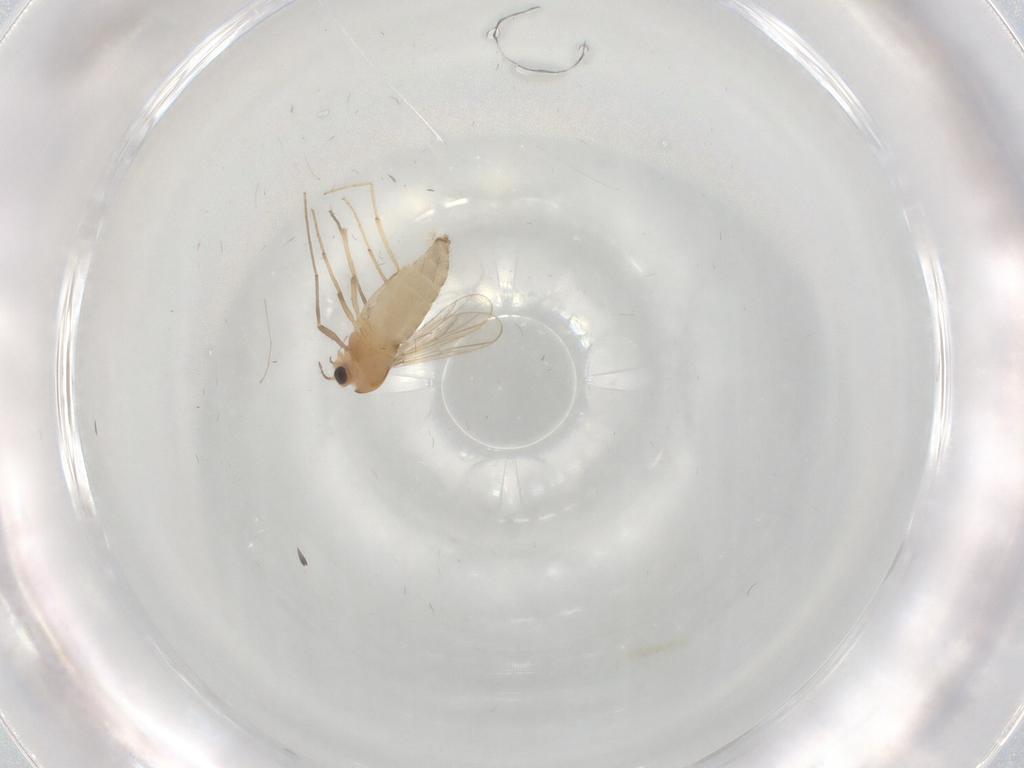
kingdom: Animalia
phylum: Arthropoda
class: Insecta
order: Diptera
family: Chironomidae
